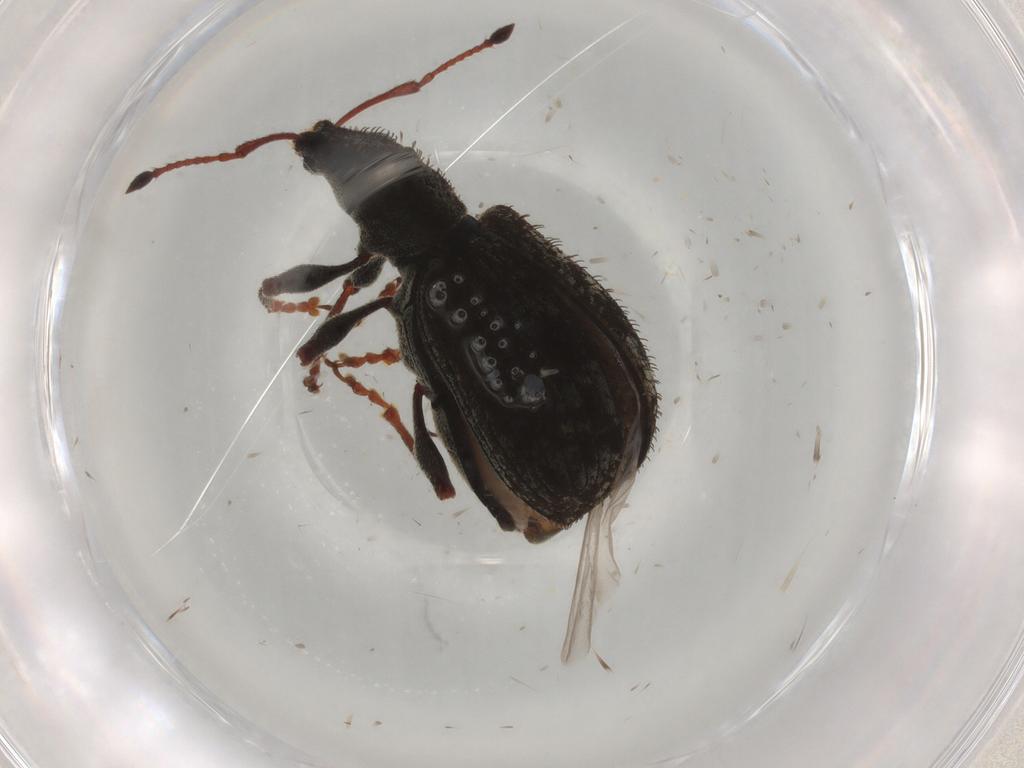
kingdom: Animalia
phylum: Arthropoda
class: Insecta
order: Coleoptera
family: Curculionidae
